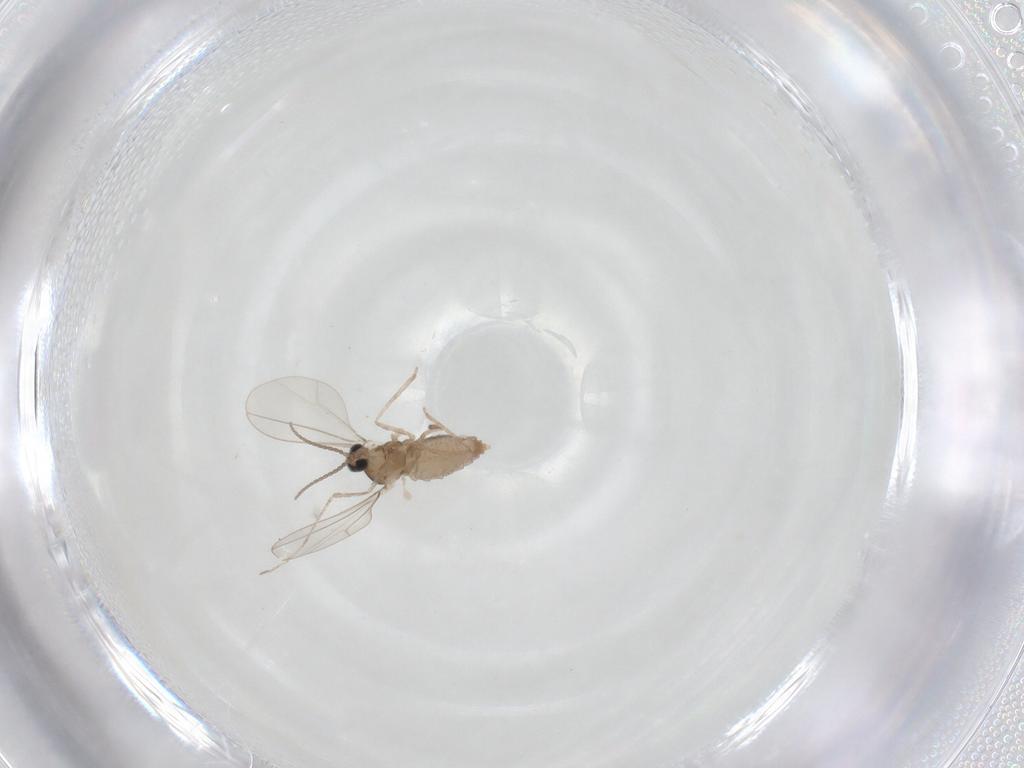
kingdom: Animalia
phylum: Arthropoda
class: Insecta
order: Diptera
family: Cecidomyiidae
